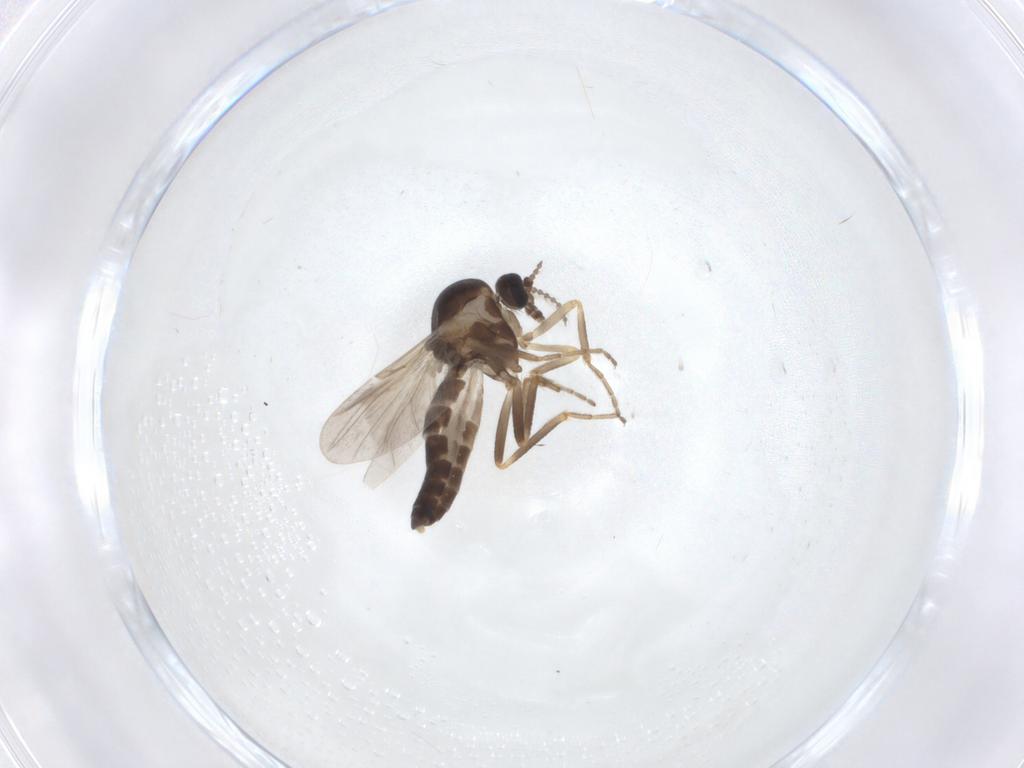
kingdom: Animalia
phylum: Arthropoda
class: Insecta
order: Diptera
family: Ceratopogonidae
